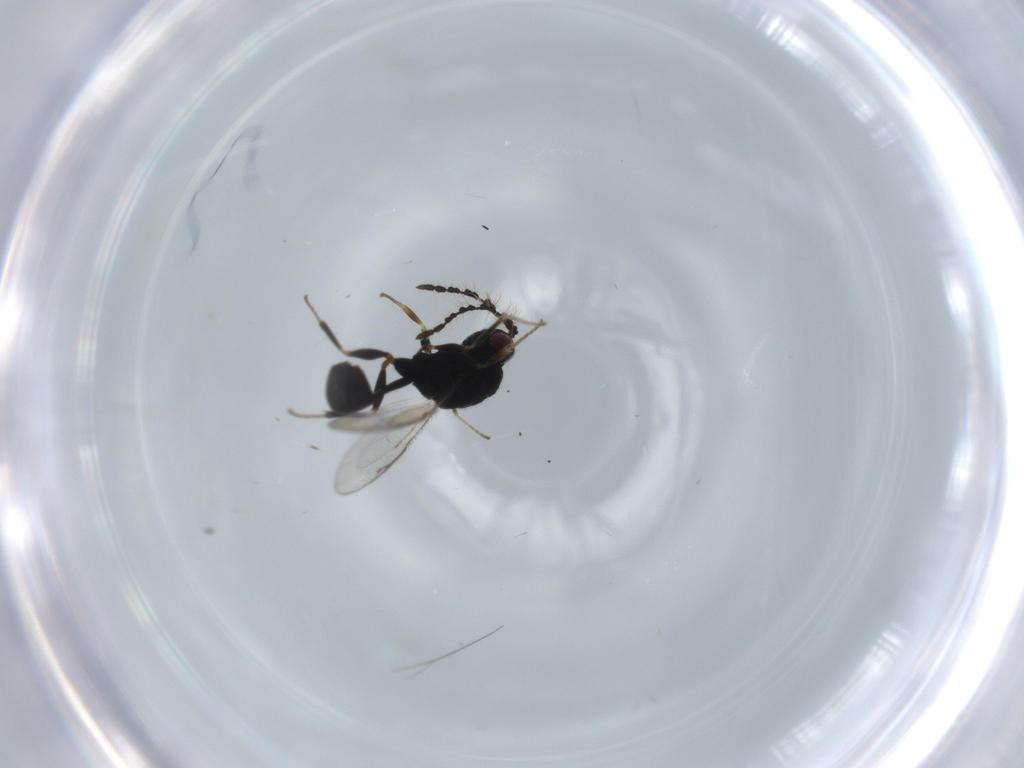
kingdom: Animalia
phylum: Arthropoda
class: Insecta
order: Hymenoptera
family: Eurytomidae
